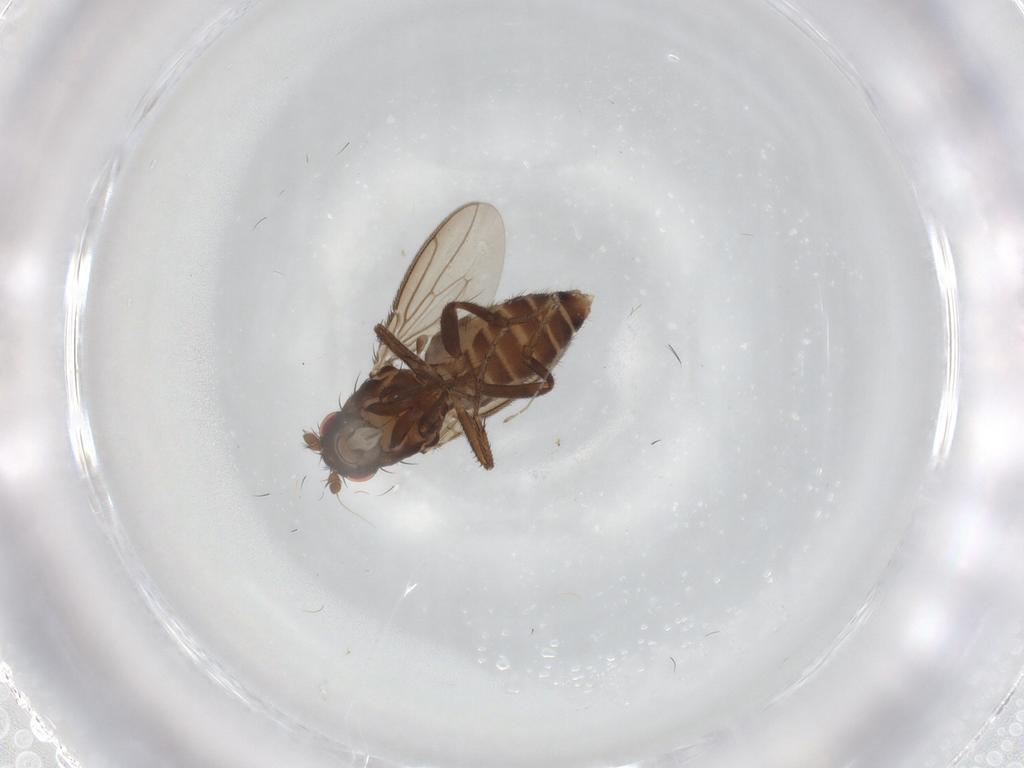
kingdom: Animalia
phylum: Arthropoda
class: Insecta
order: Diptera
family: Sphaeroceridae
